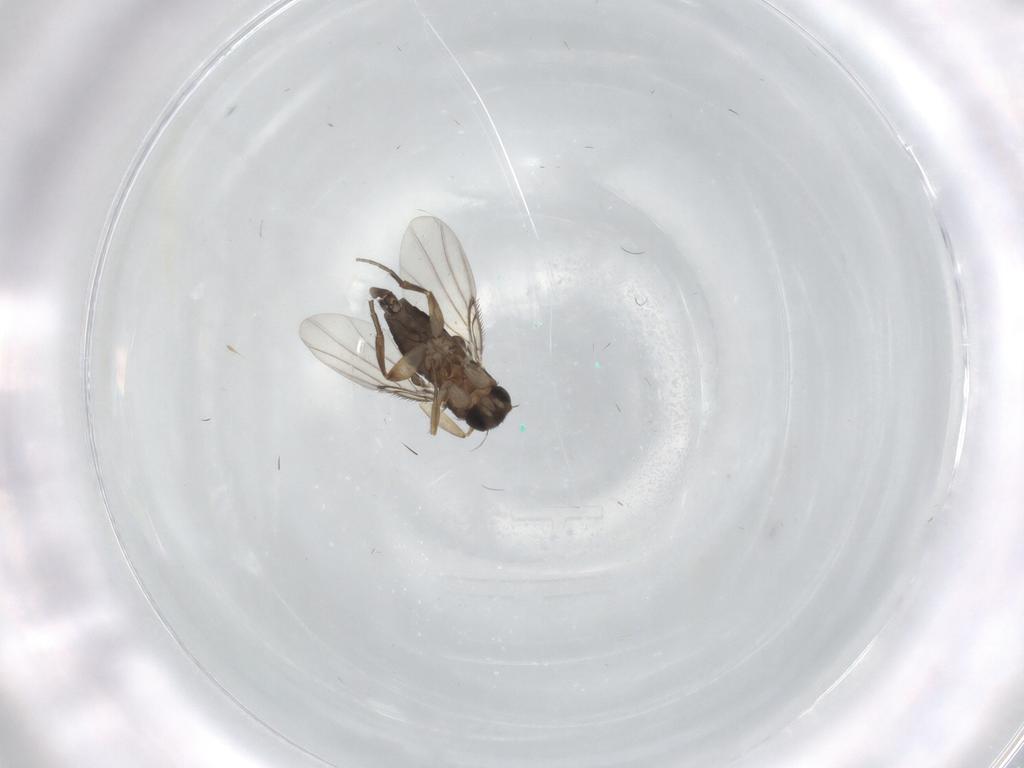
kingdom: Animalia
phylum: Arthropoda
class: Insecta
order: Diptera
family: Phoridae
